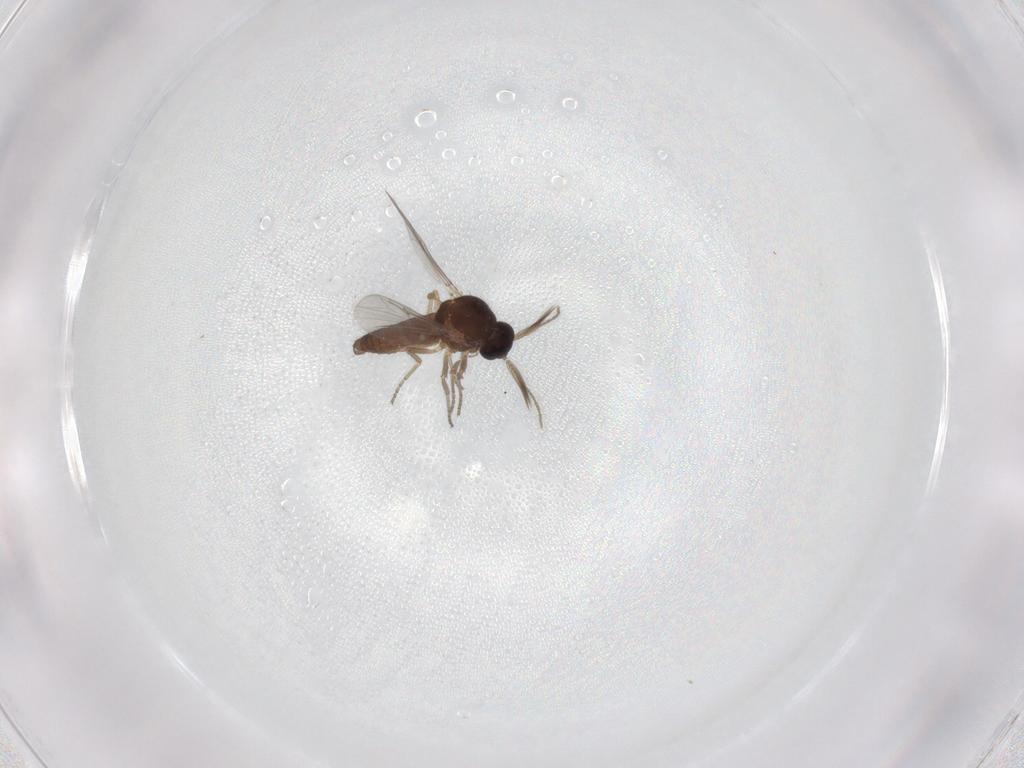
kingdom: Animalia
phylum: Arthropoda
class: Insecta
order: Diptera
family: Ceratopogonidae
